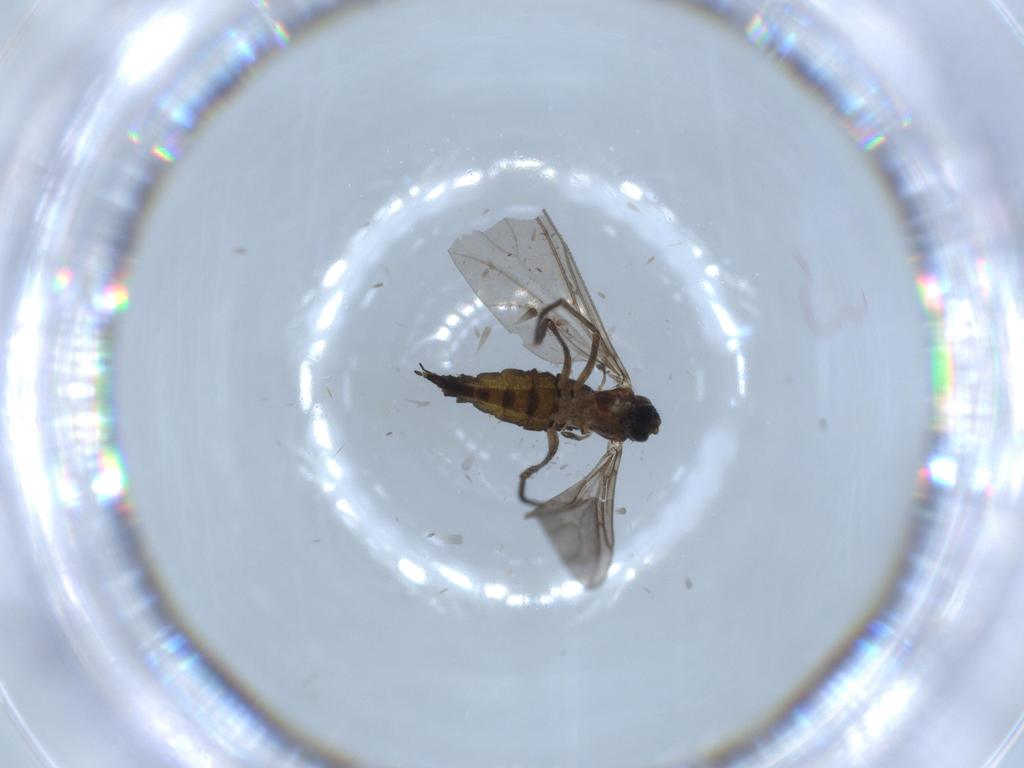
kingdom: Animalia
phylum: Arthropoda
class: Insecta
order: Diptera
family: Sciaridae
